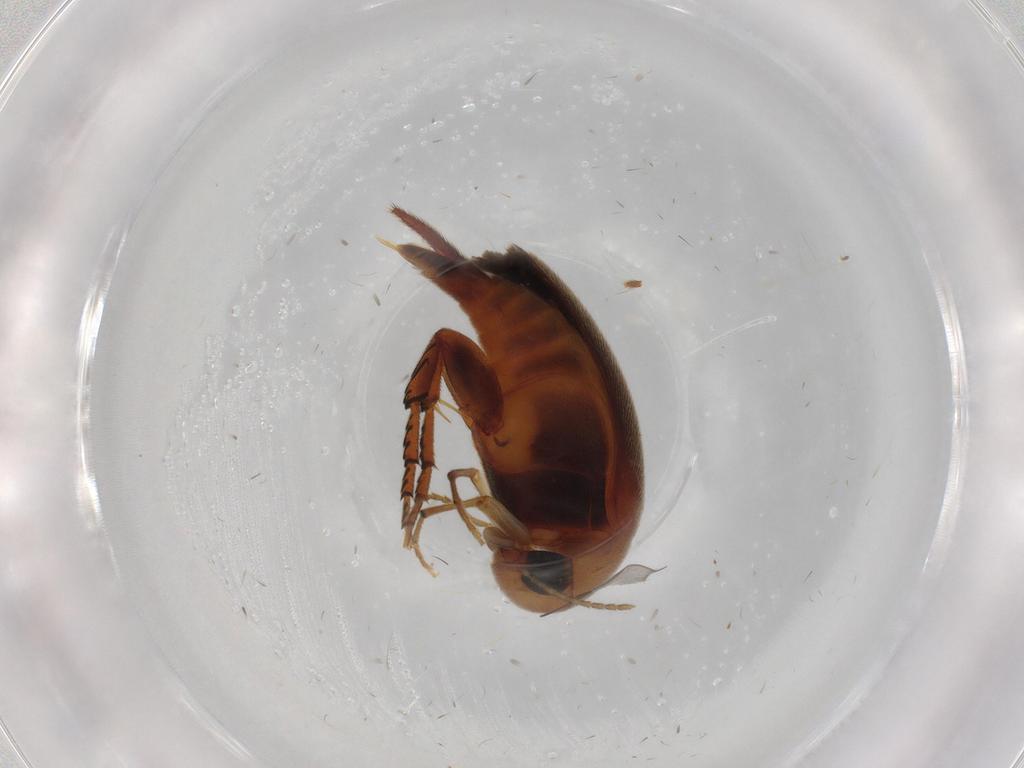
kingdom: Animalia
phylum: Arthropoda
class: Insecta
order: Coleoptera
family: Mordellidae
